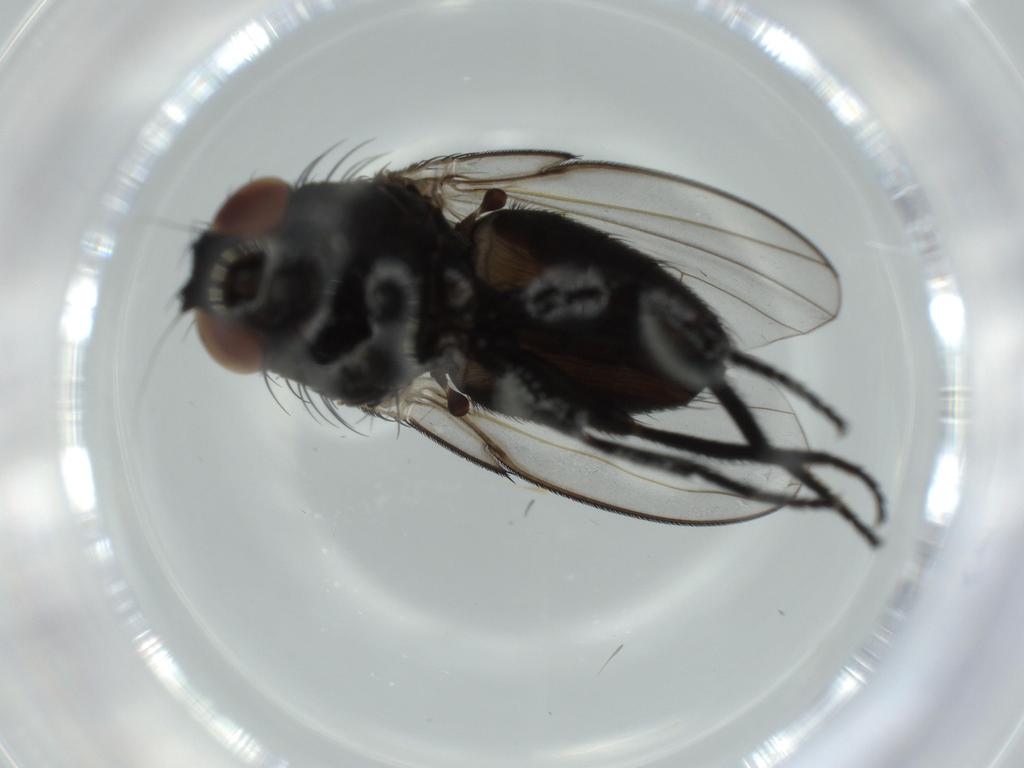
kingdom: Animalia
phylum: Arthropoda
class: Insecta
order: Diptera
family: Milichiidae
